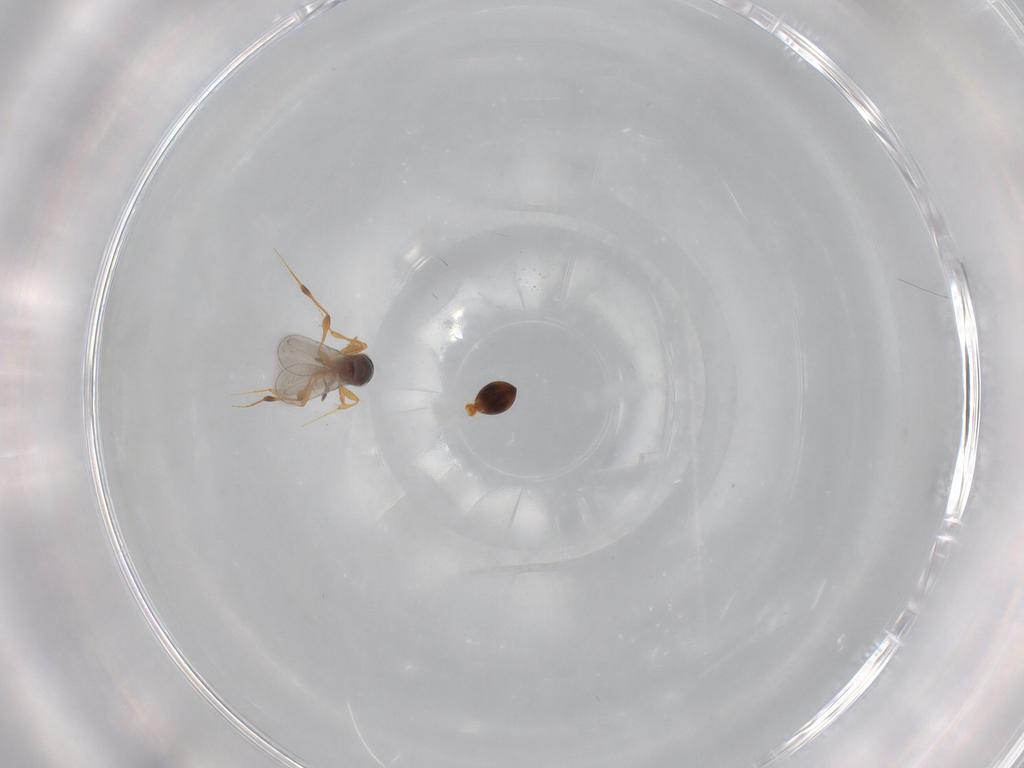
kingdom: Animalia
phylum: Arthropoda
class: Insecta
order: Hymenoptera
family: Platygastridae
